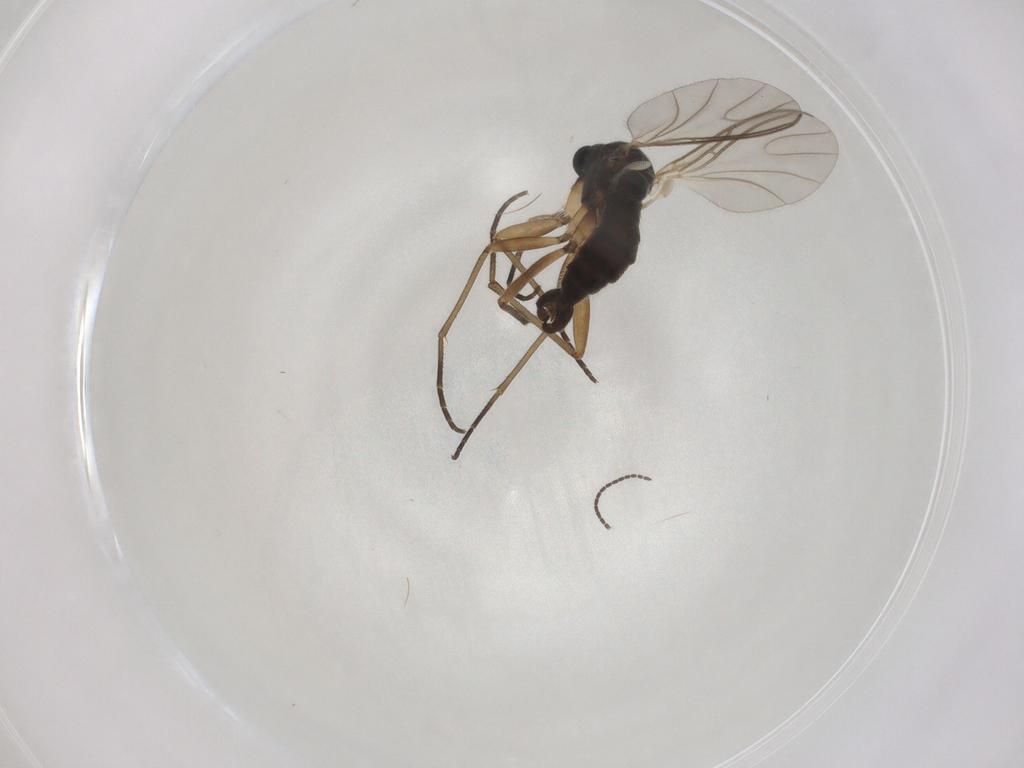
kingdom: Animalia
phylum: Arthropoda
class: Insecta
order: Diptera
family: Sciaridae
